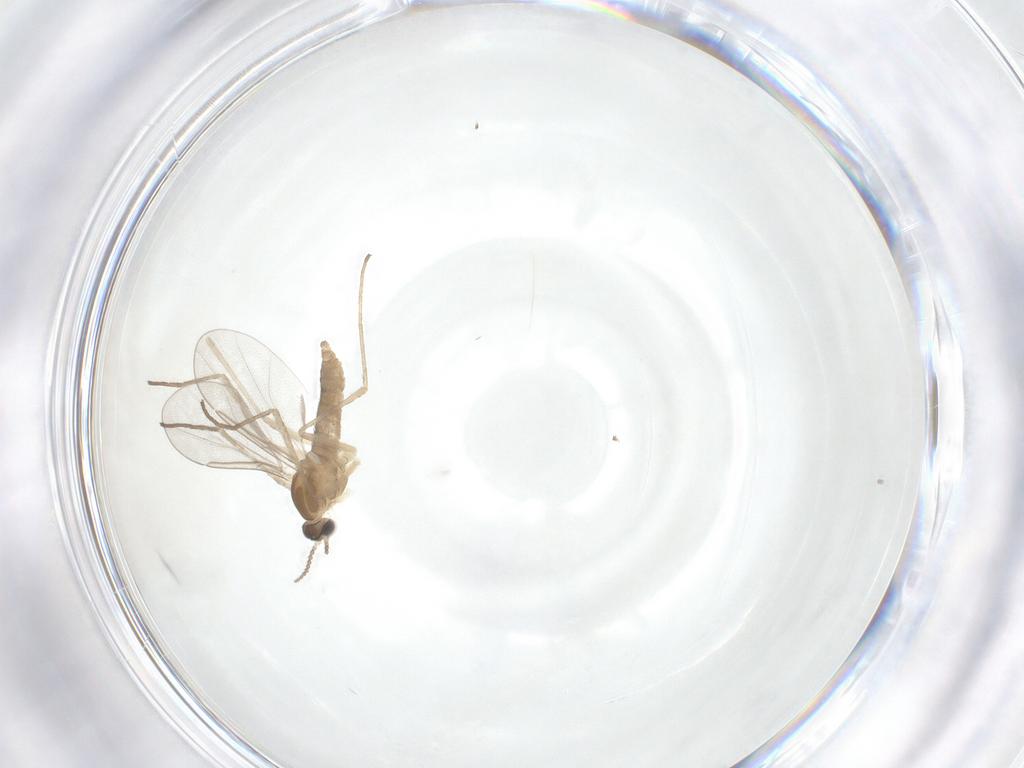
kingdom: Animalia
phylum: Arthropoda
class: Insecta
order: Diptera
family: Cecidomyiidae
